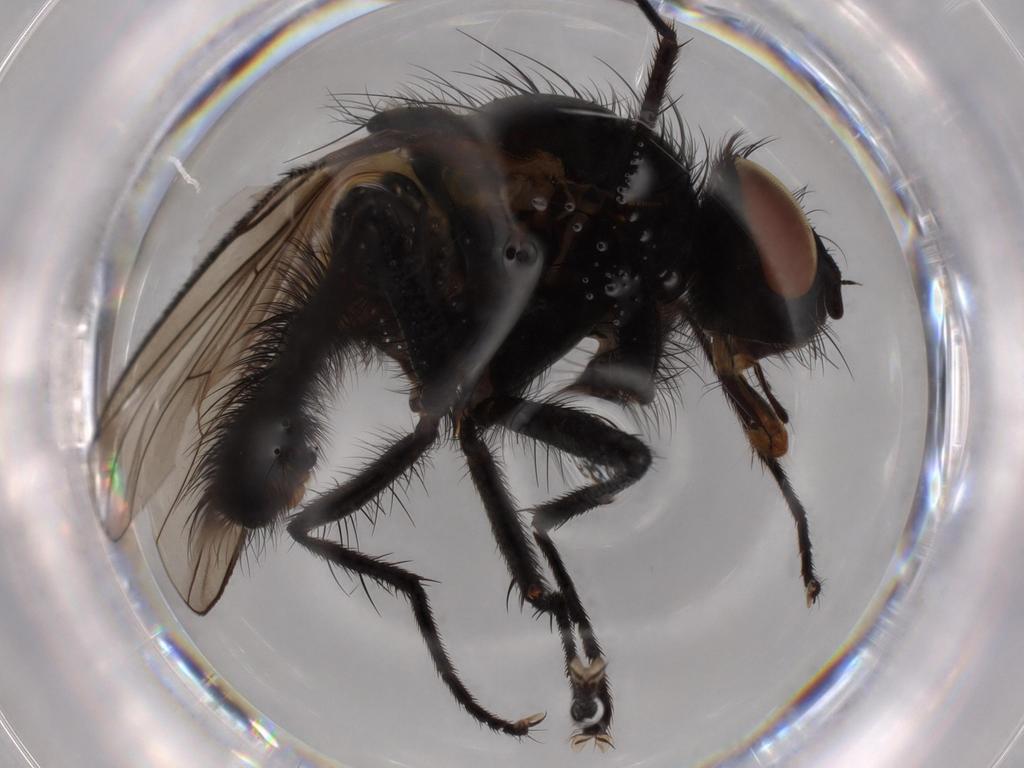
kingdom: Animalia
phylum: Arthropoda
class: Insecta
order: Diptera
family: Anthomyiidae
